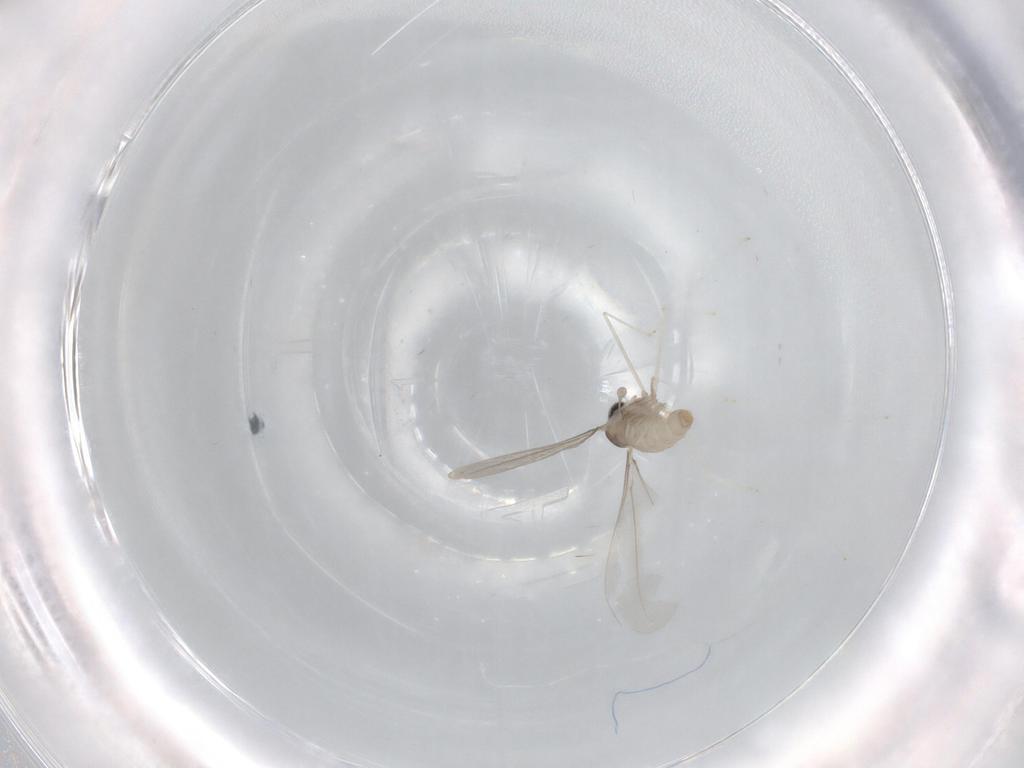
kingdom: Animalia
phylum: Arthropoda
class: Insecta
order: Diptera
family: Cecidomyiidae
